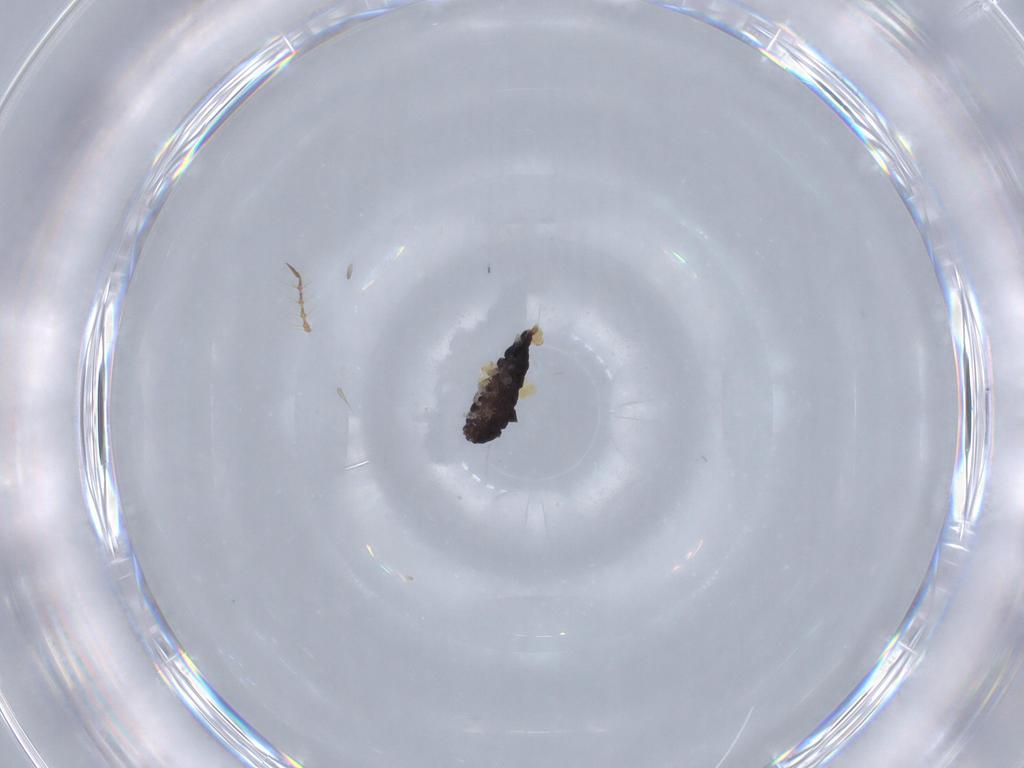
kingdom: Animalia
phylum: Arthropoda
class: Collembola
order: Poduromorpha
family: Neanuridae
